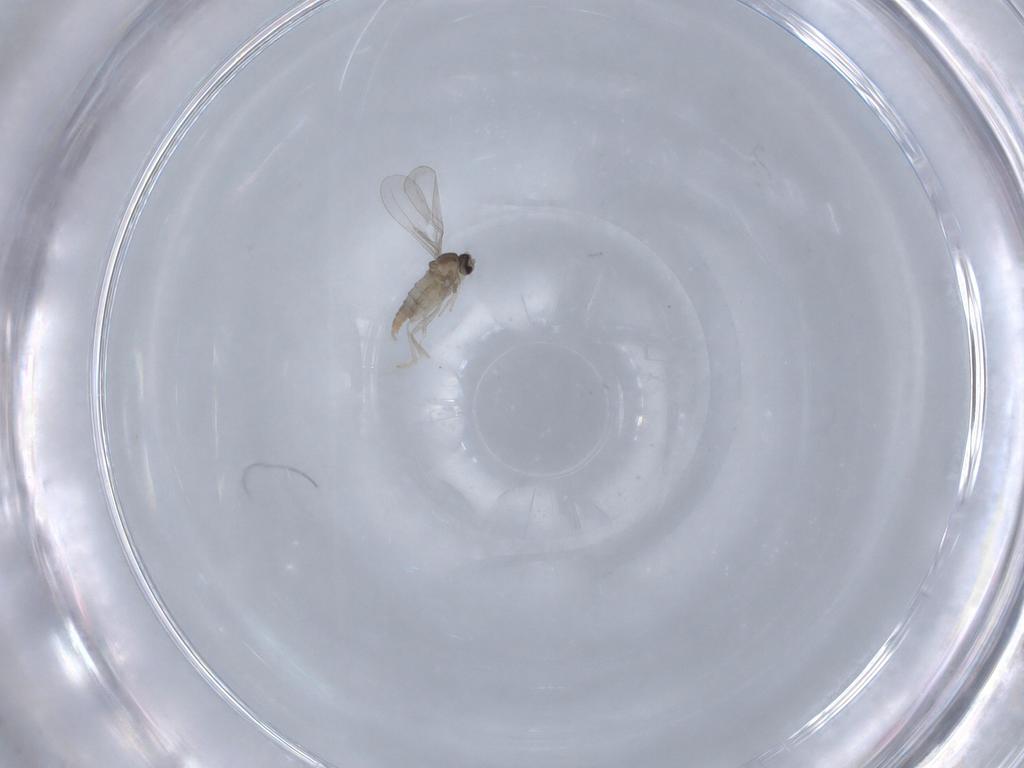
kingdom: Animalia
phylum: Arthropoda
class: Insecta
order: Diptera
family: Cecidomyiidae
